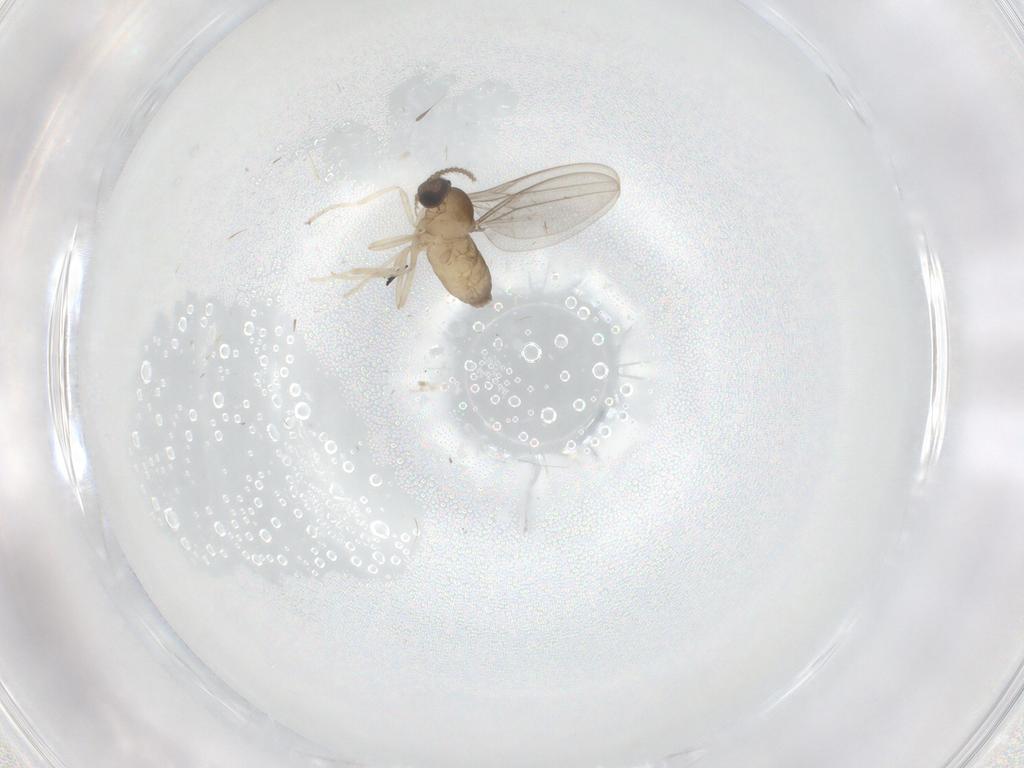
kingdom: Animalia
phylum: Arthropoda
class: Insecta
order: Diptera
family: Cecidomyiidae
